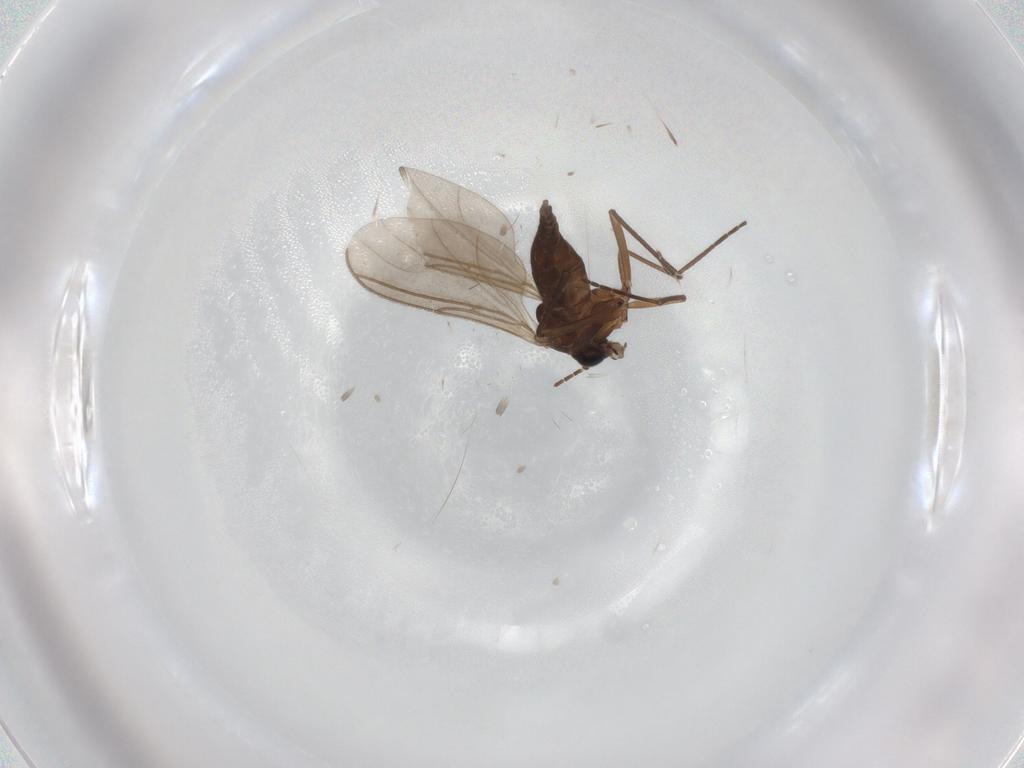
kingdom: Animalia
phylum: Arthropoda
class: Insecta
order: Diptera
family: Sciaridae
